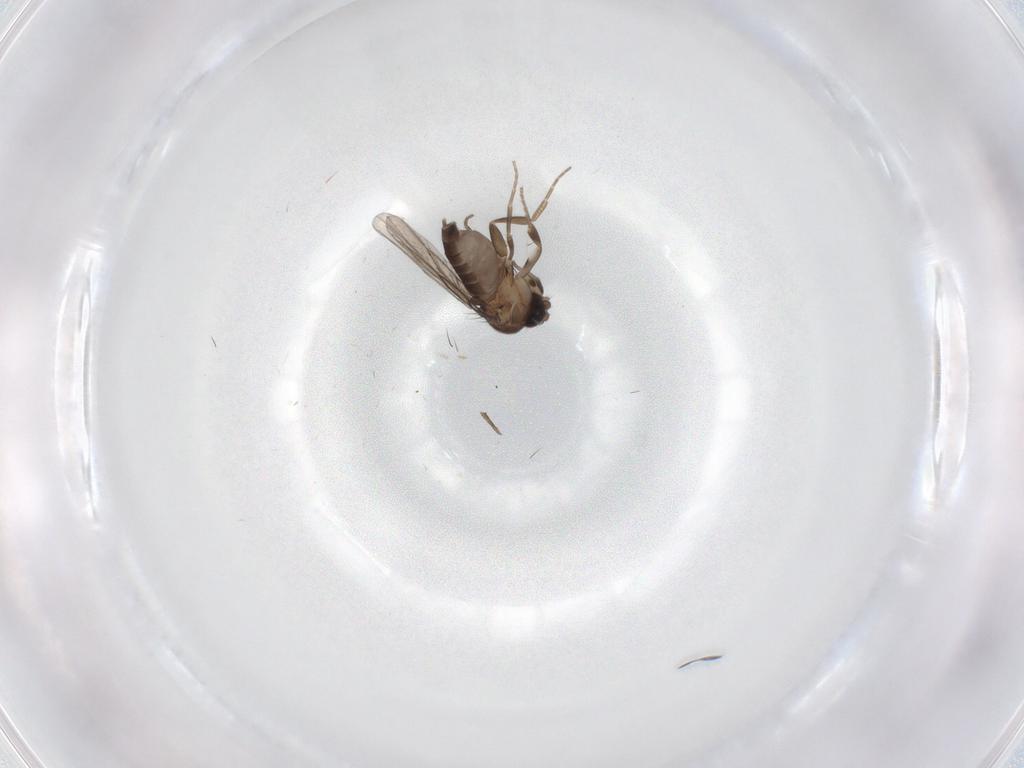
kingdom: Animalia
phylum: Arthropoda
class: Insecta
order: Diptera
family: Phoridae
